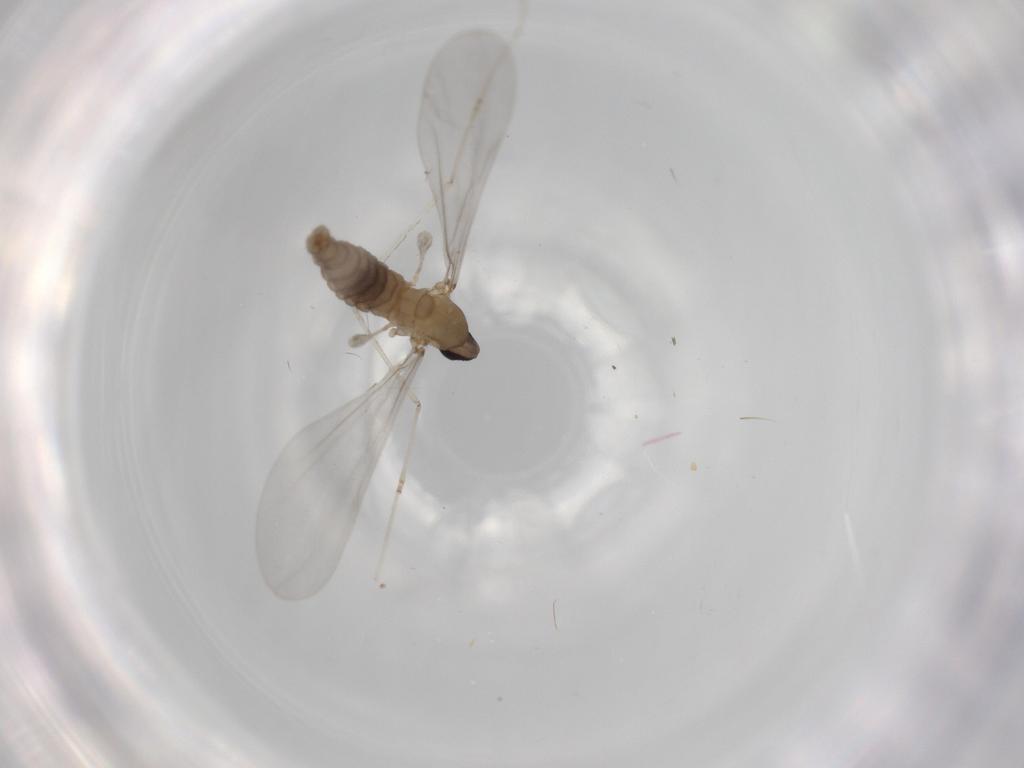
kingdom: Animalia
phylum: Arthropoda
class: Insecta
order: Diptera
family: Cecidomyiidae
